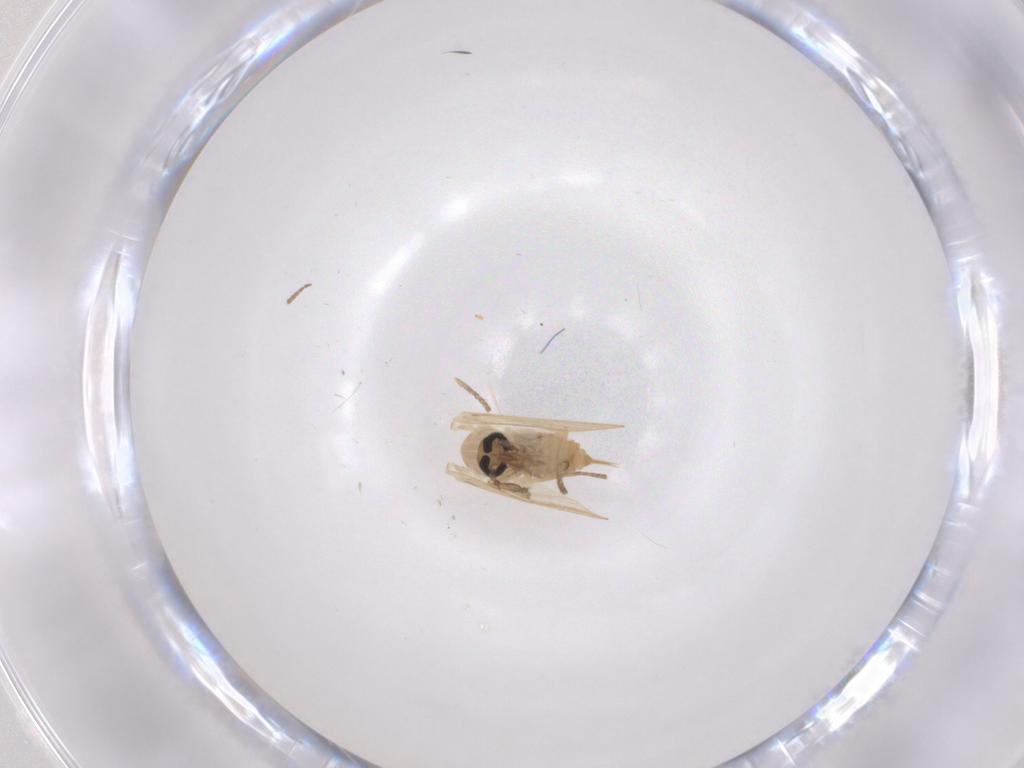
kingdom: Animalia
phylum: Arthropoda
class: Insecta
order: Diptera
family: Psychodidae
